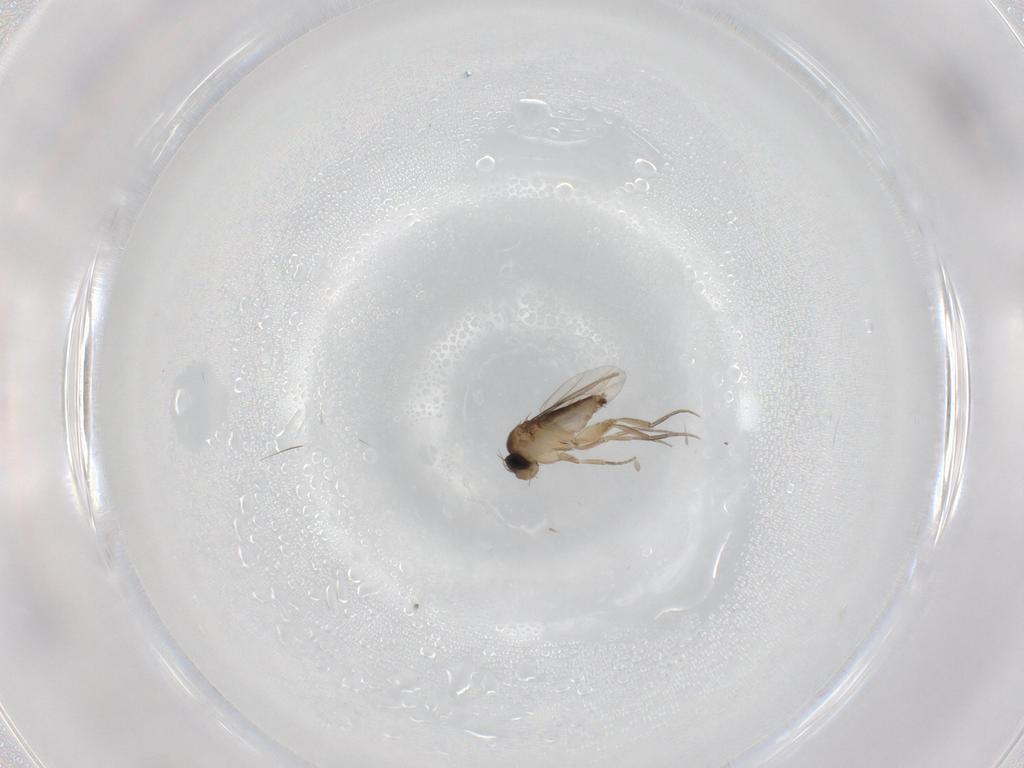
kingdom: Animalia
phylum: Arthropoda
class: Insecta
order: Diptera
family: Phoridae
